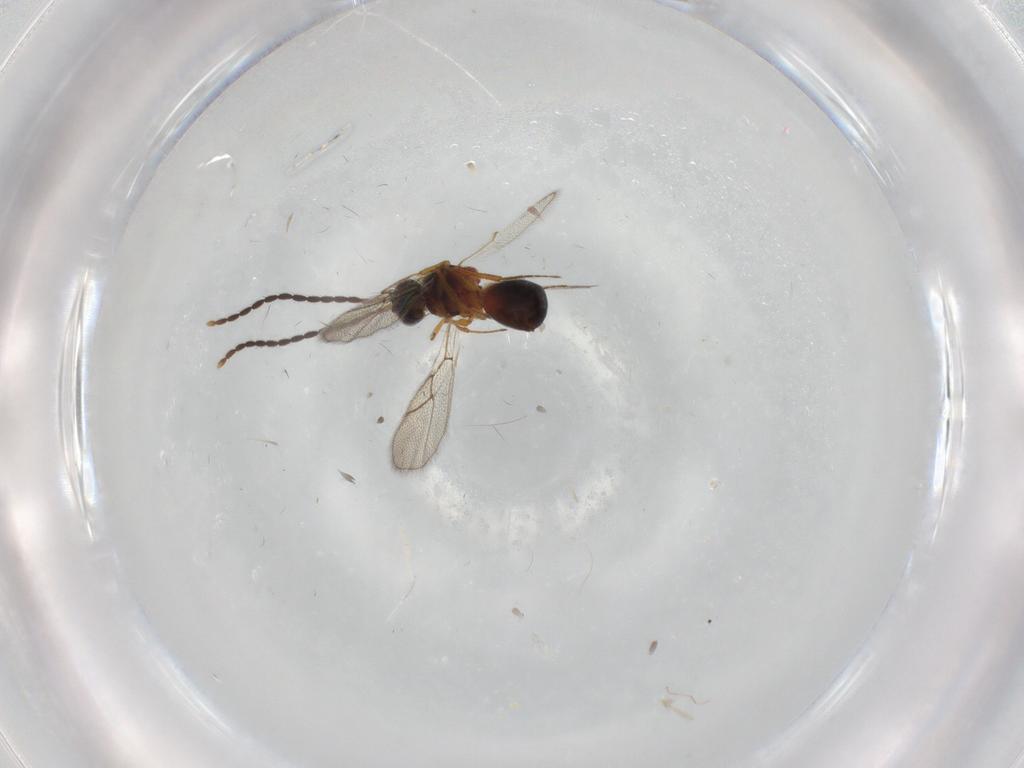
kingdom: Animalia
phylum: Arthropoda
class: Insecta
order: Hymenoptera
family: Figitidae
